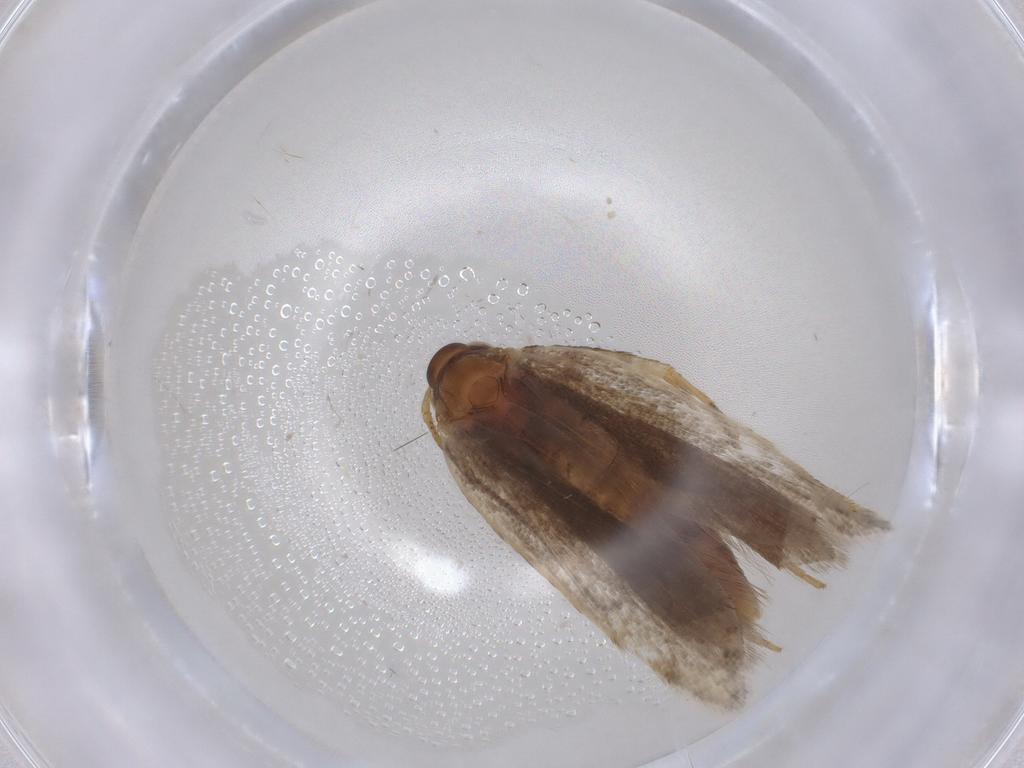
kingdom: Animalia
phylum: Arthropoda
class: Insecta
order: Lepidoptera
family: Gelechiidae
